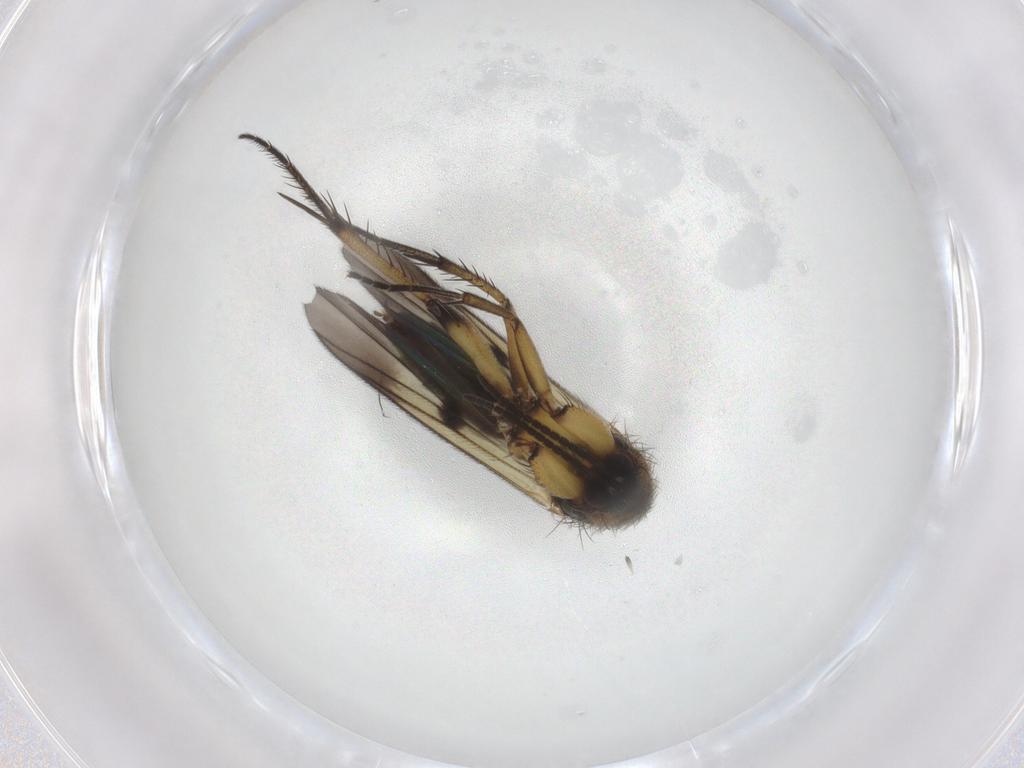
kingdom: Animalia
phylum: Arthropoda
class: Insecta
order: Diptera
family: Mycetophilidae
